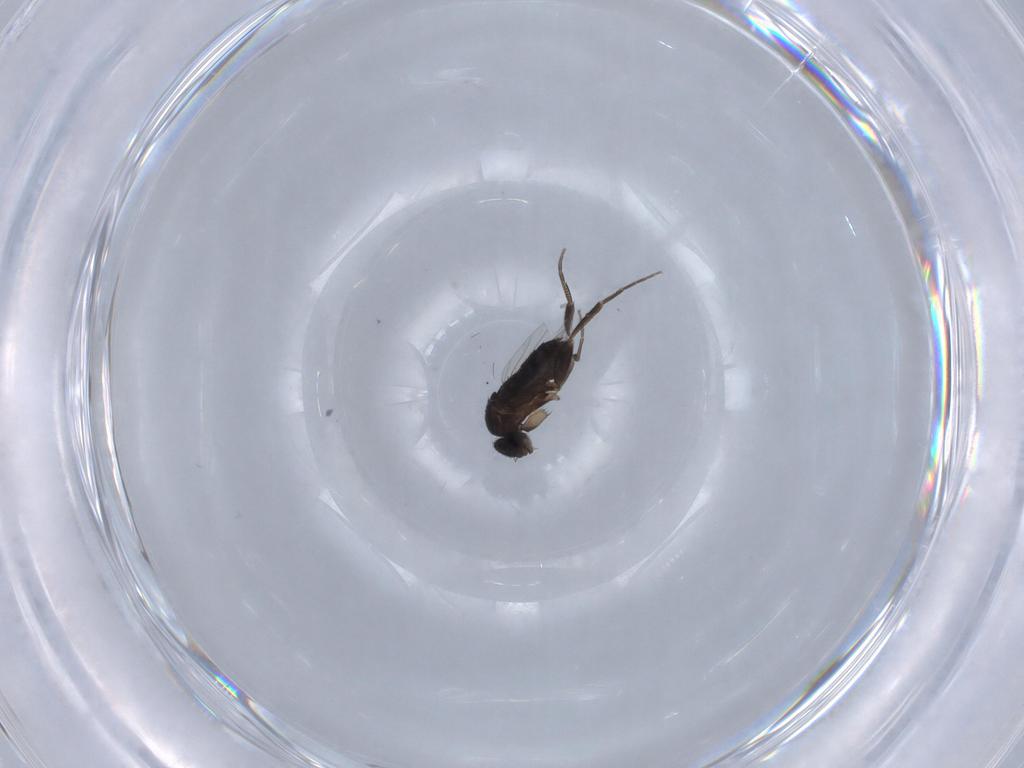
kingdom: Animalia
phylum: Arthropoda
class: Insecta
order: Diptera
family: Phoridae
